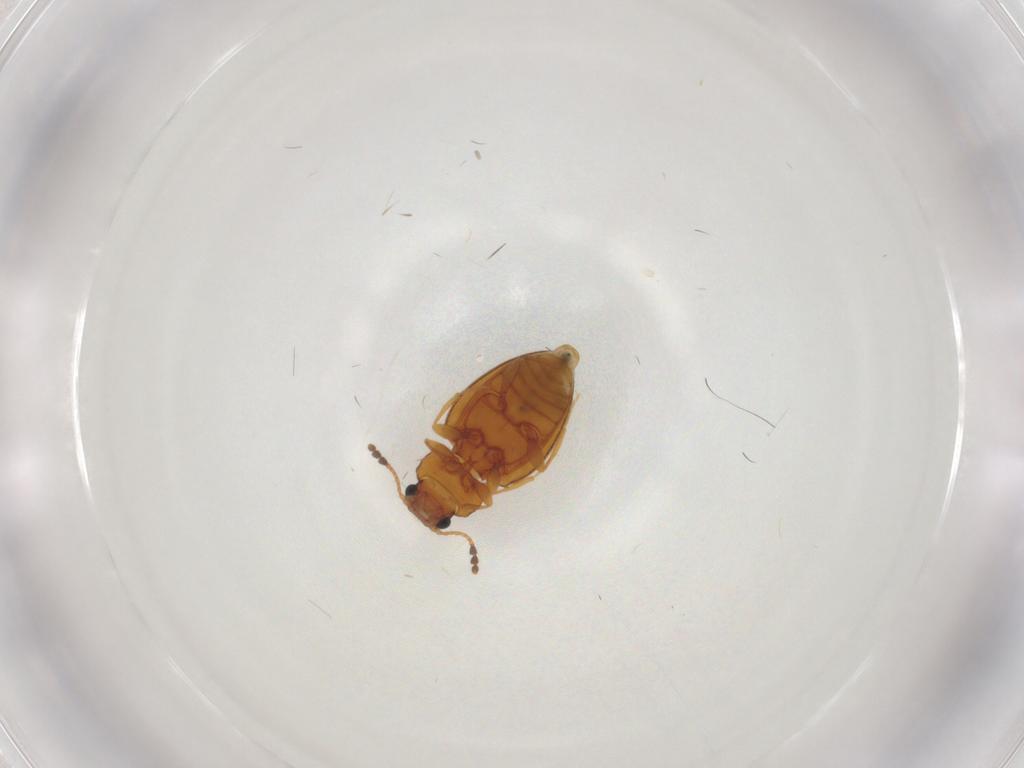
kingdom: Animalia
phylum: Arthropoda
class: Insecta
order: Coleoptera
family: Erotylidae
